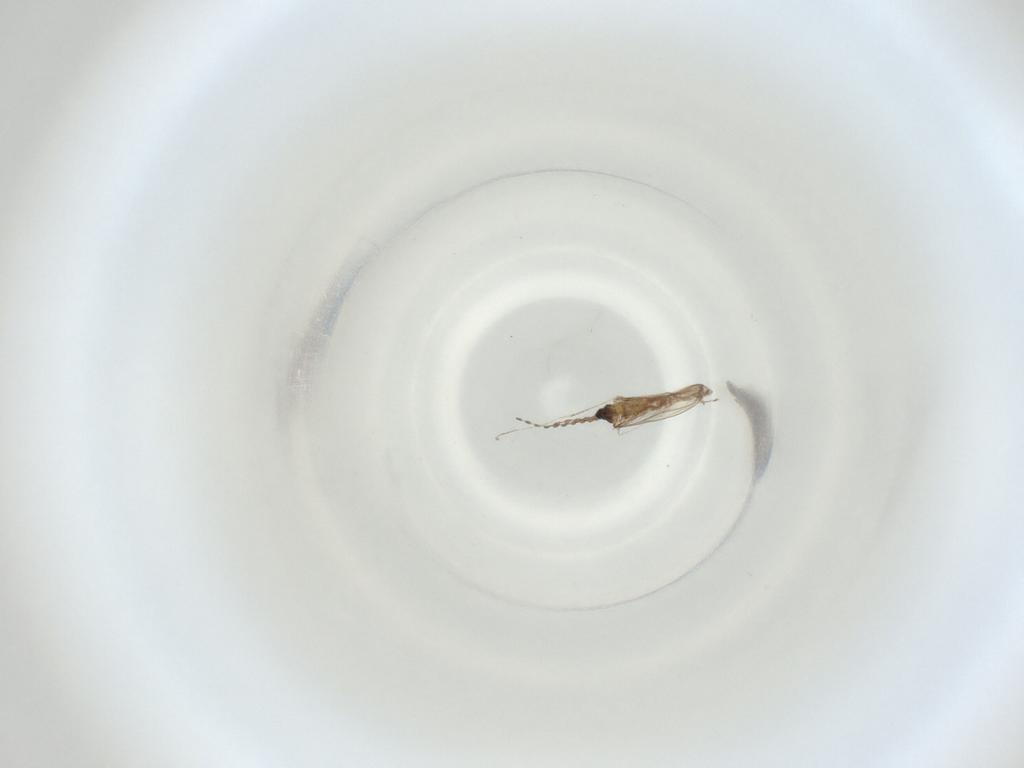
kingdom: Animalia
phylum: Arthropoda
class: Insecta
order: Diptera
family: Cecidomyiidae
